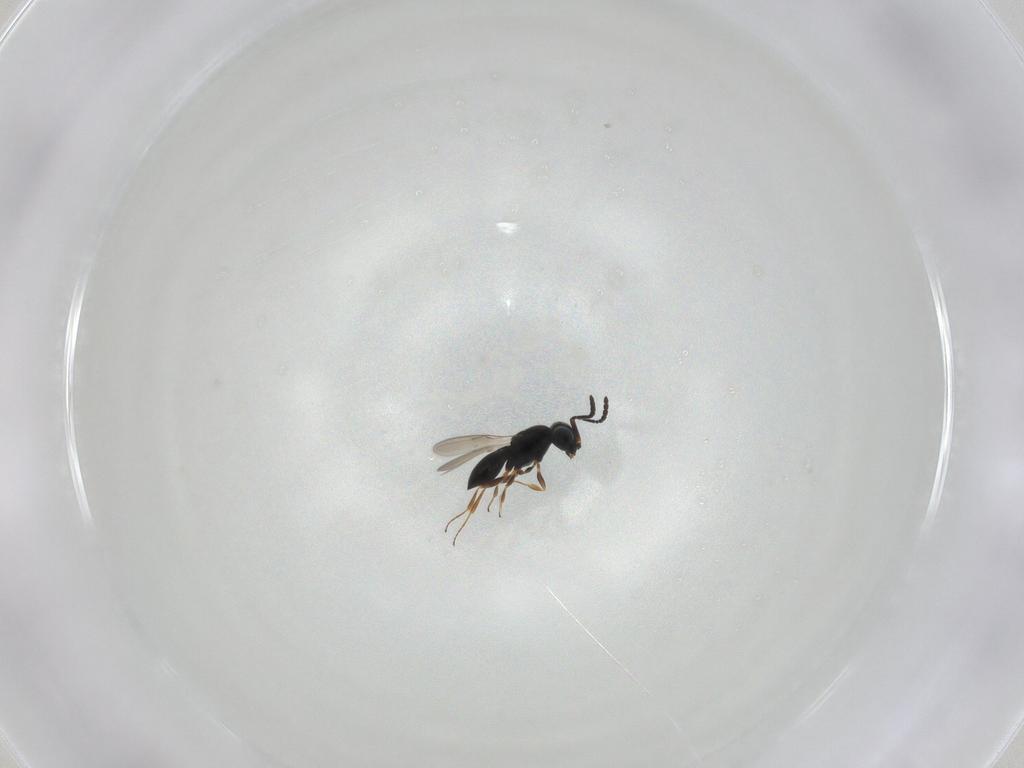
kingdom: Animalia
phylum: Arthropoda
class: Insecta
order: Hymenoptera
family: Scelionidae
